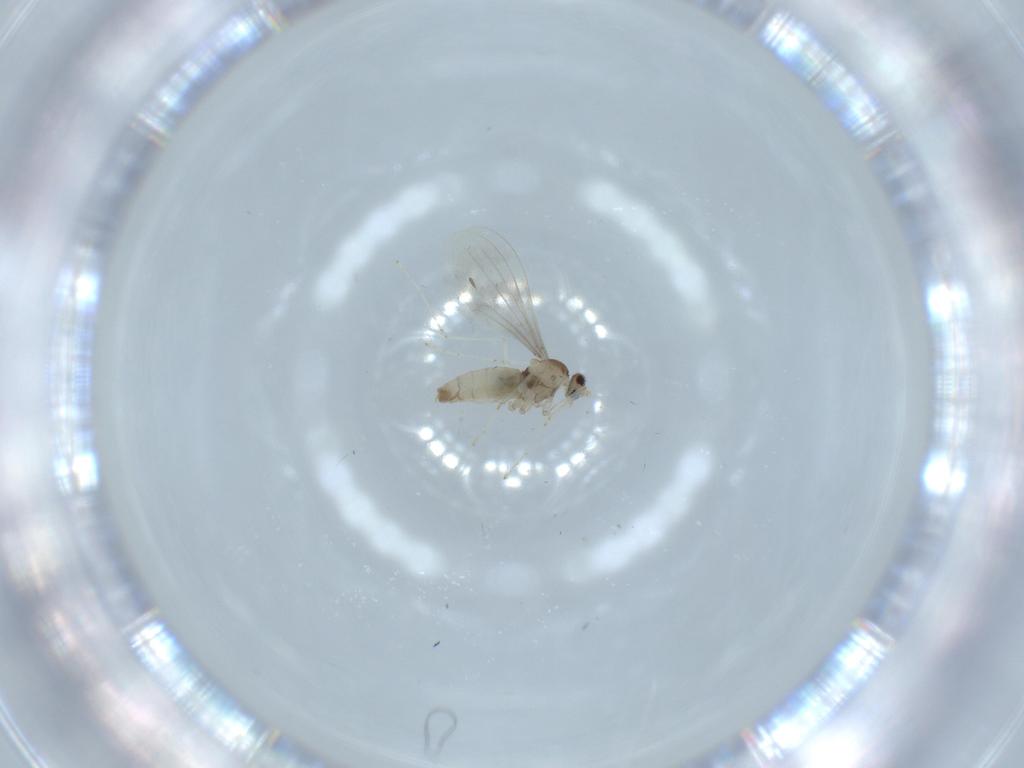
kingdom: Animalia
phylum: Arthropoda
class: Insecta
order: Diptera
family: Cecidomyiidae
